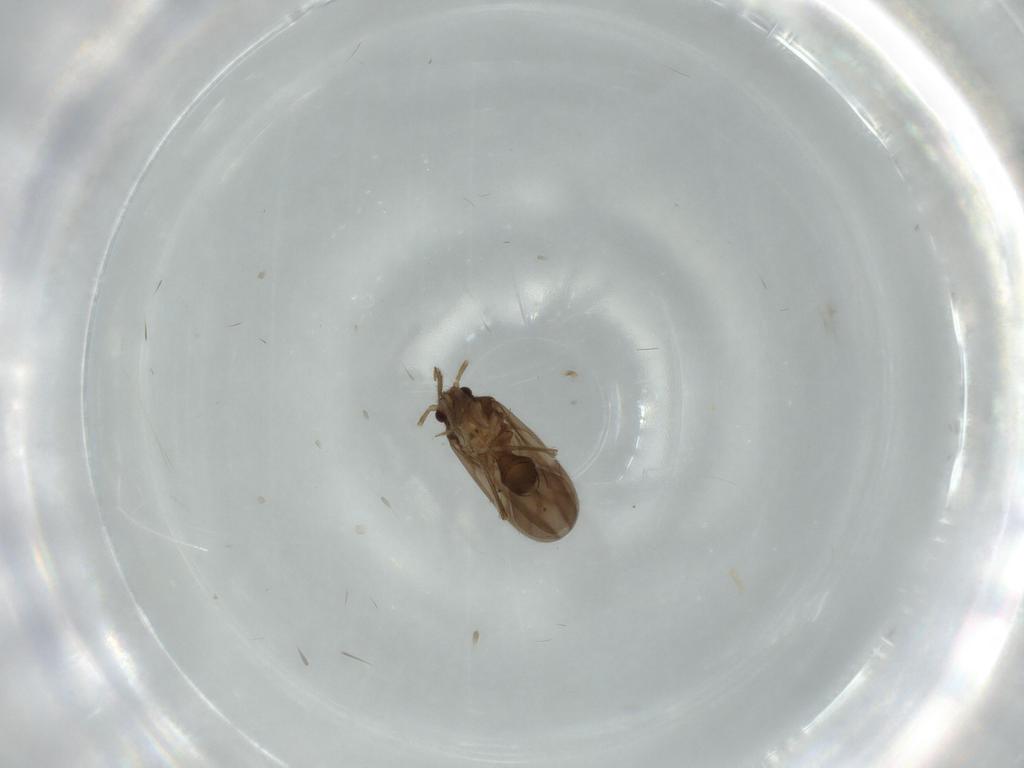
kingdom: Animalia
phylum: Arthropoda
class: Insecta
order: Hemiptera
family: Ceratocombidae
